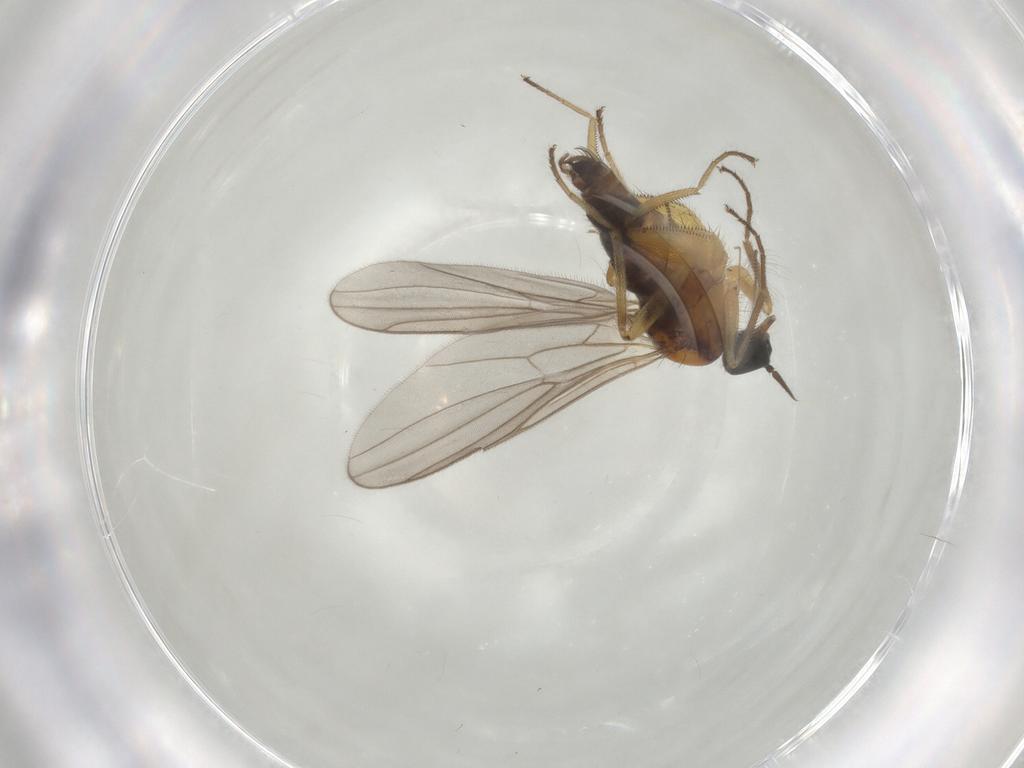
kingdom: Animalia
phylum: Arthropoda
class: Insecta
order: Diptera
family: Hybotidae
